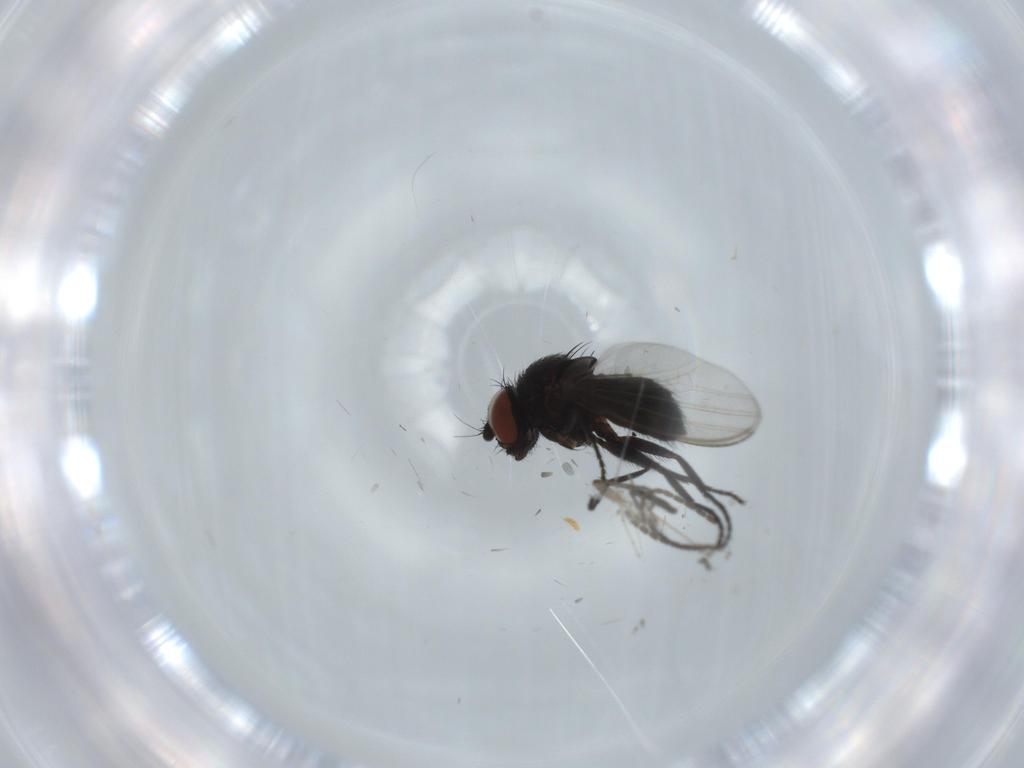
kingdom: Animalia
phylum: Arthropoda
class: Insecta
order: Diptera
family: Sciaridae
